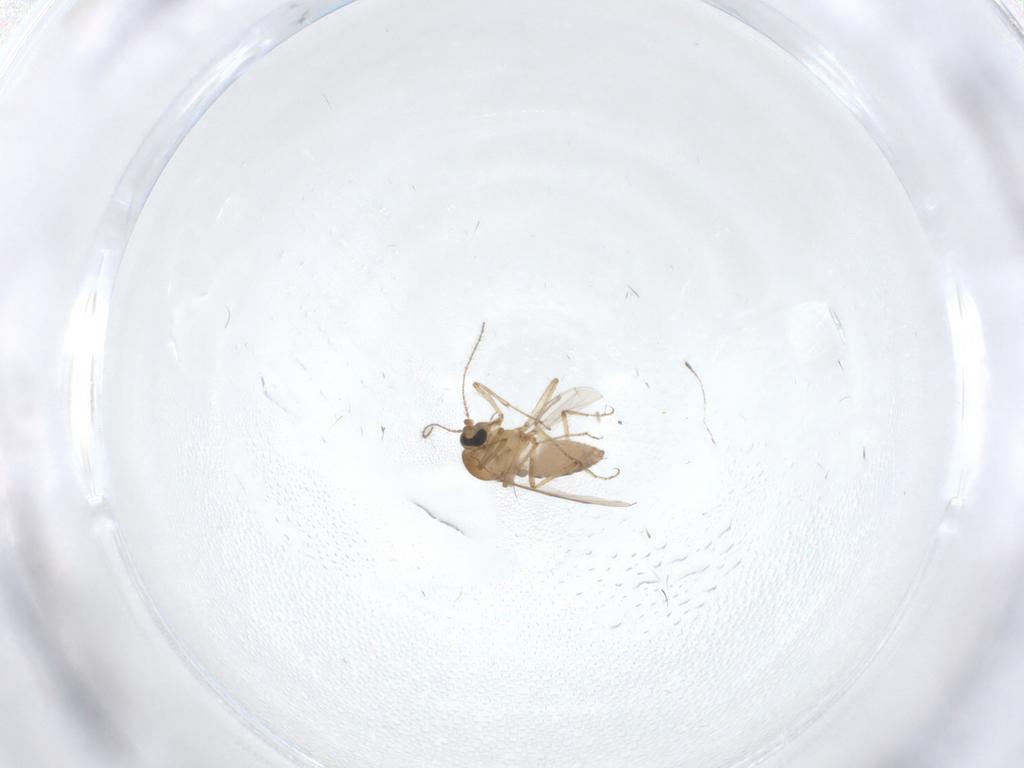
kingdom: Animalia
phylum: Arthropoda
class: Insecta
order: Diptera
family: Cecidomyiidae
